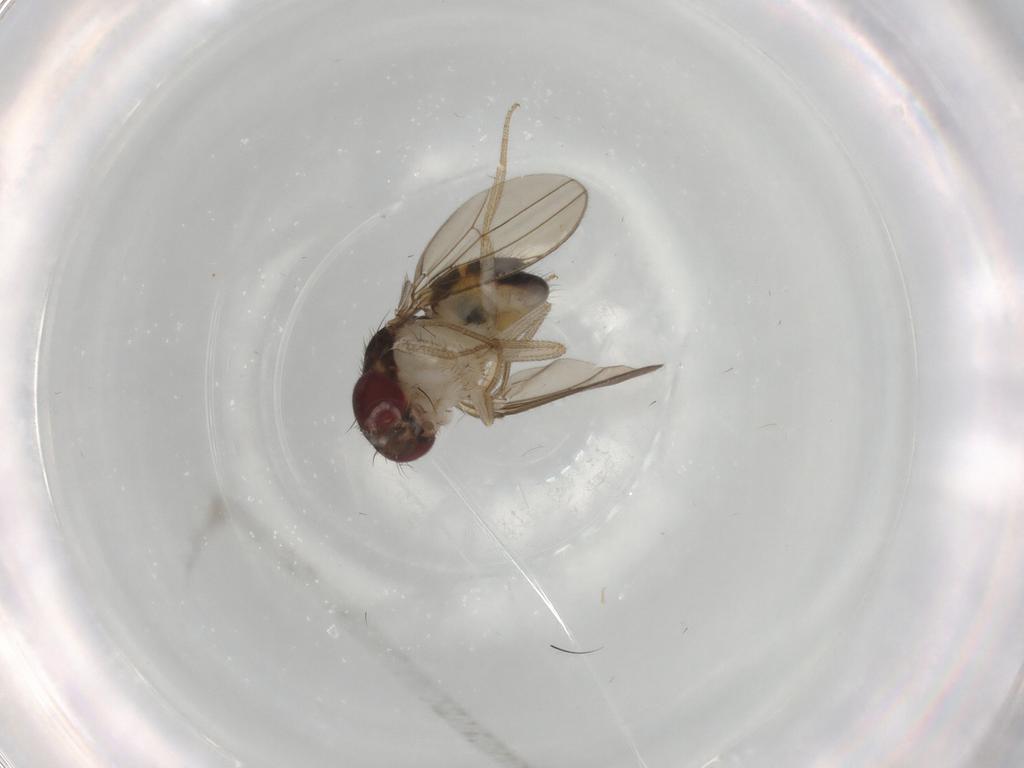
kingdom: Animalia
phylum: Arthropoda
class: Insecta
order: Diptera
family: Drosophilidae
